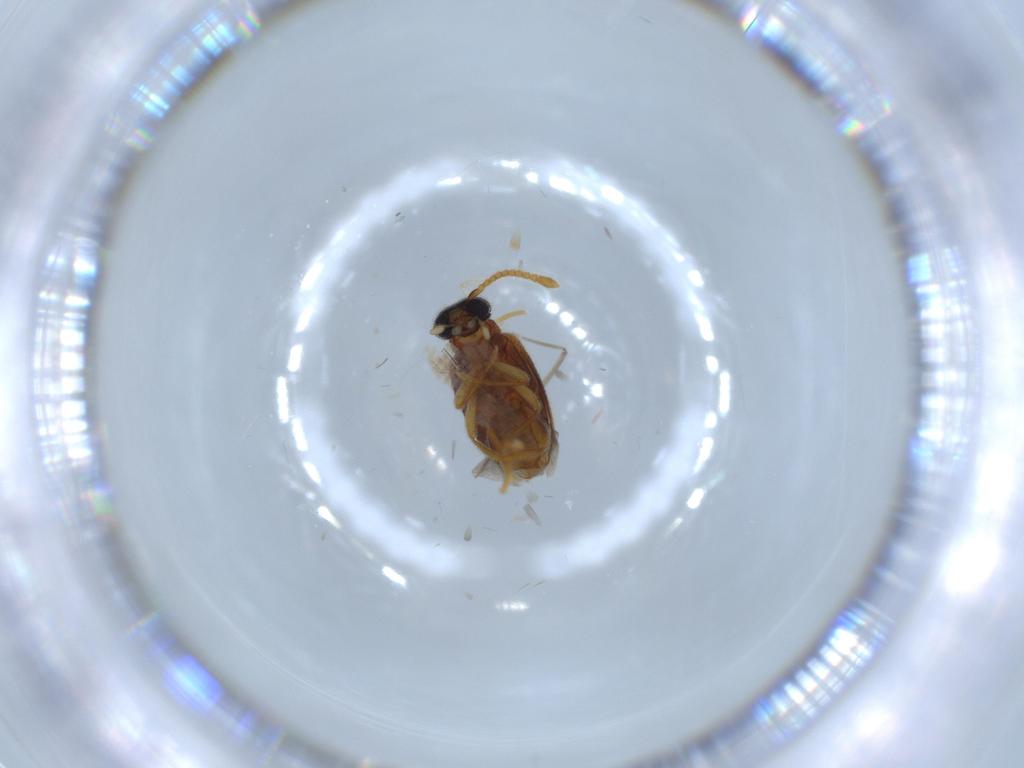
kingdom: Animalia
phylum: Arthropoda
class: Insecta
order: Coleoptera
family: Aderidae
